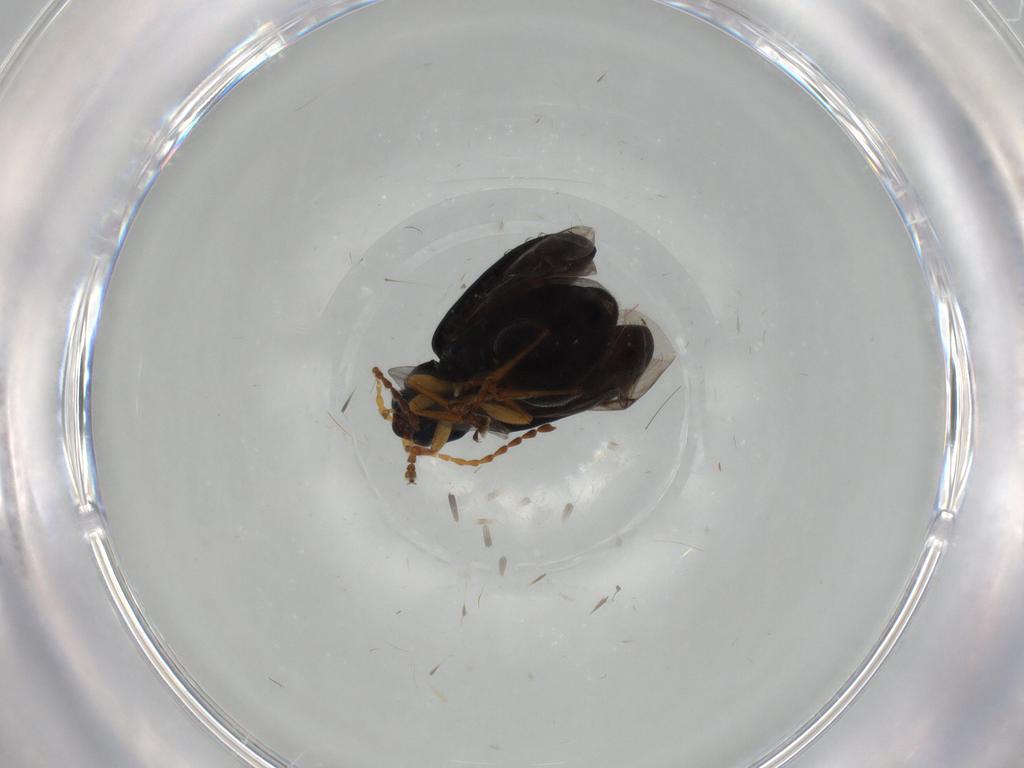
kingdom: Animalia
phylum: Arthropoda
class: Insecta
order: Coleoptera
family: Chrysomelidae
